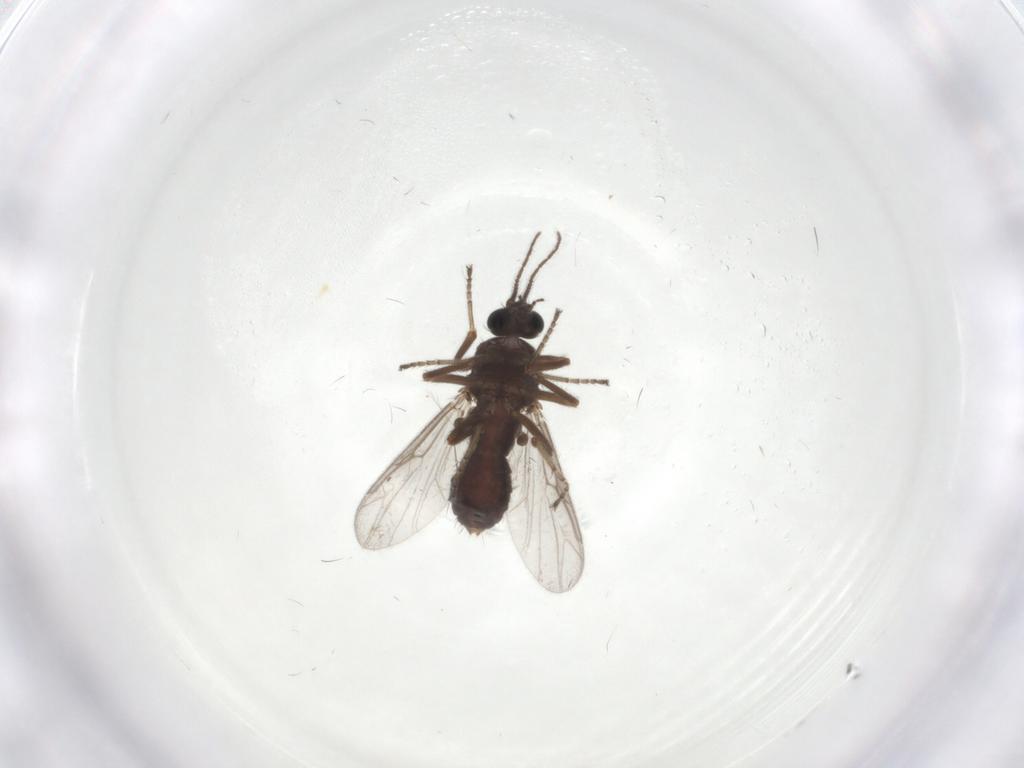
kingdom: Animalia
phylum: Arthropoda
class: Insecta
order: Diptera
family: Ceratopogonidae
